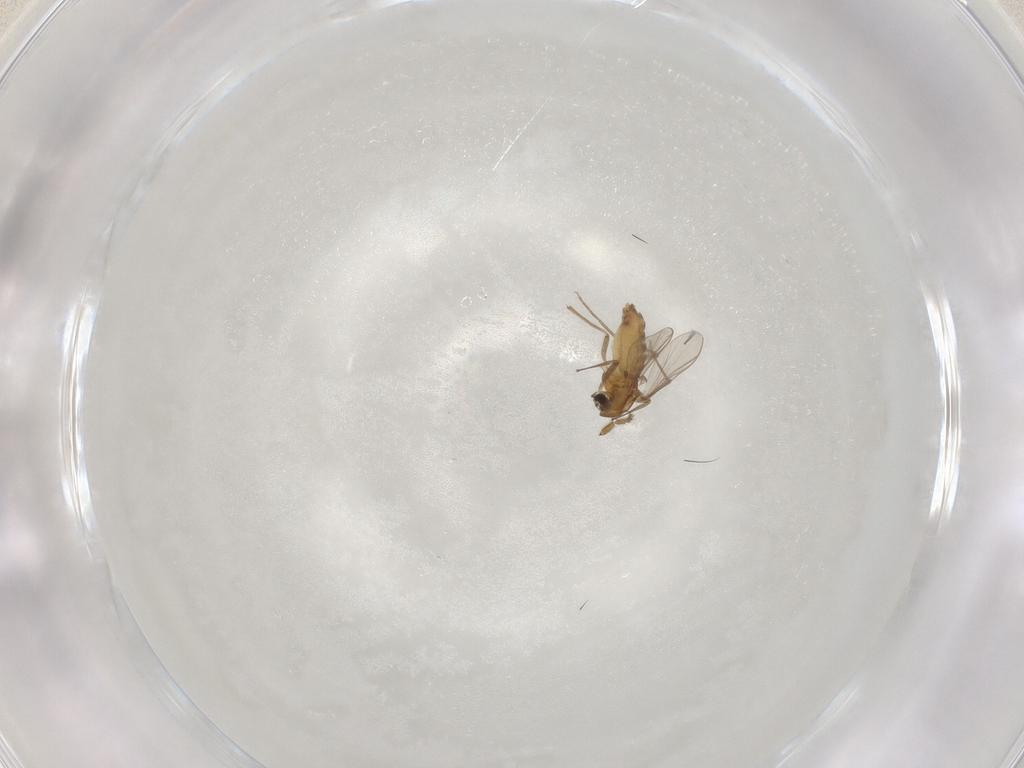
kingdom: Animalia
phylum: Arthropoda
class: Insecta
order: Diptera
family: Chironomidae
